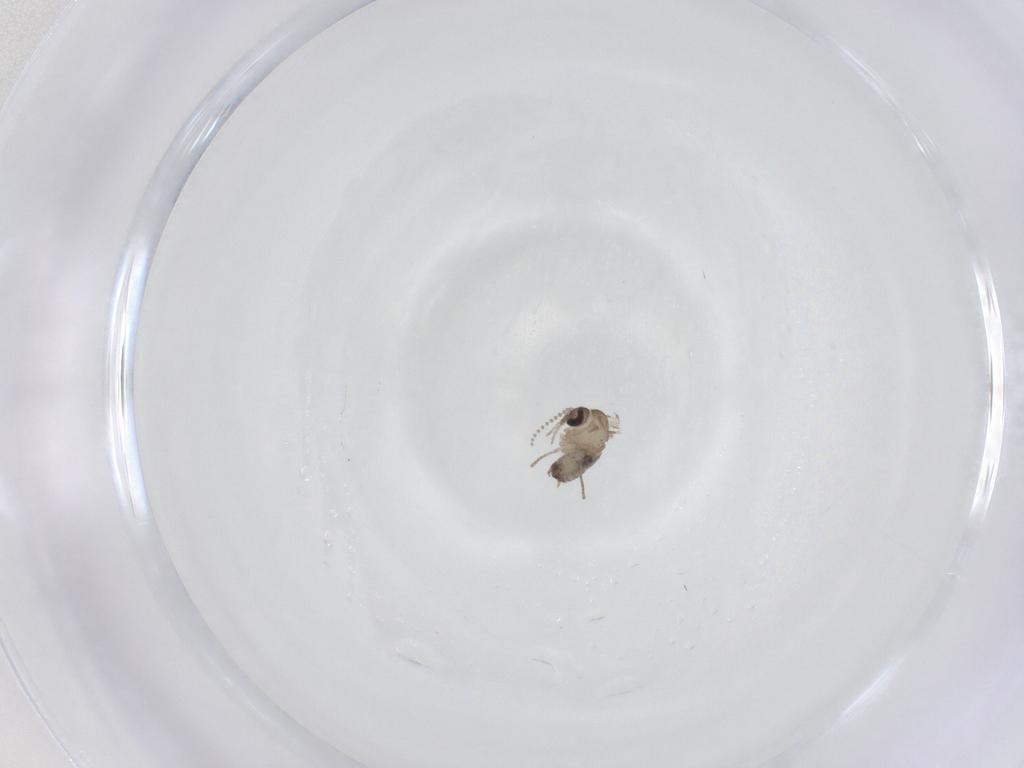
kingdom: Animalia
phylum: Arthropoda
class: Insecta
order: Diptera
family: Psychodidae
